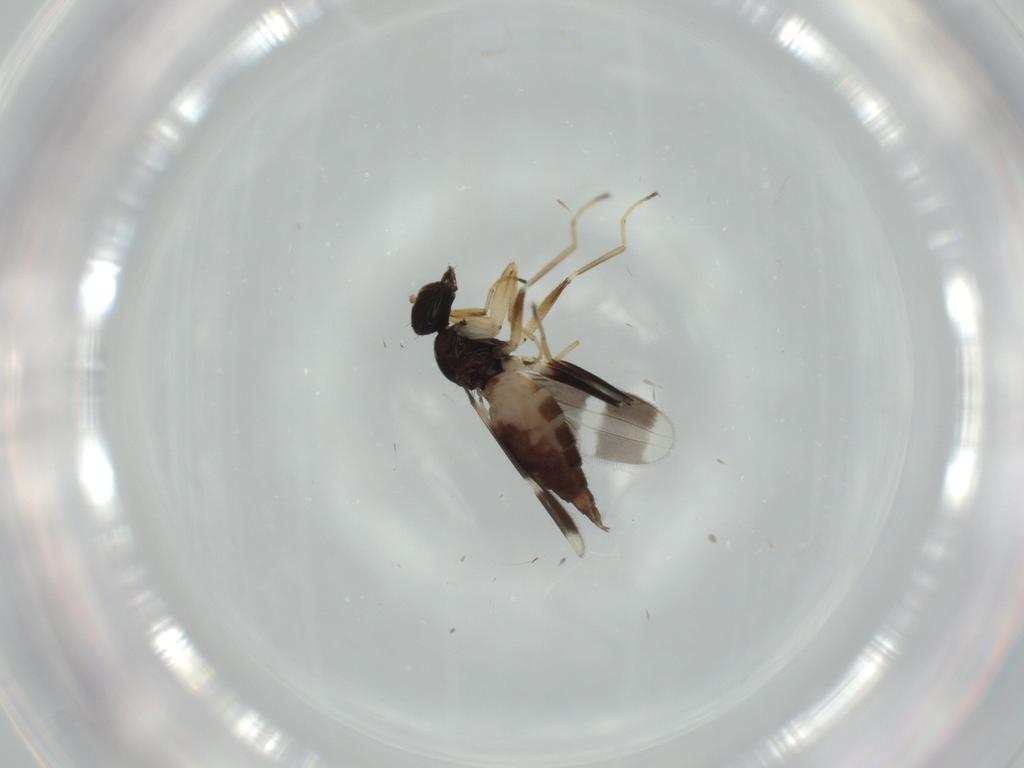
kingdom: Animalia
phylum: Arthropoda
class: Insecta
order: Diptera
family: Hybotidae
